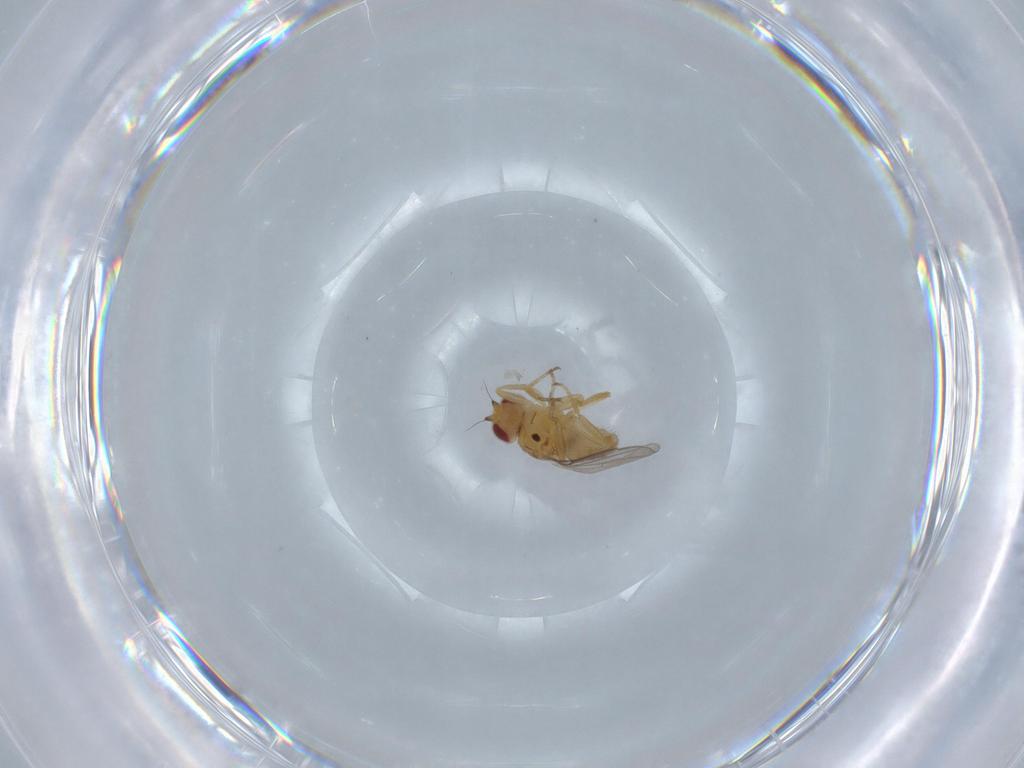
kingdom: Animalia
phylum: Arthropoda
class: Insecta
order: Diptera
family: Chloropidae
